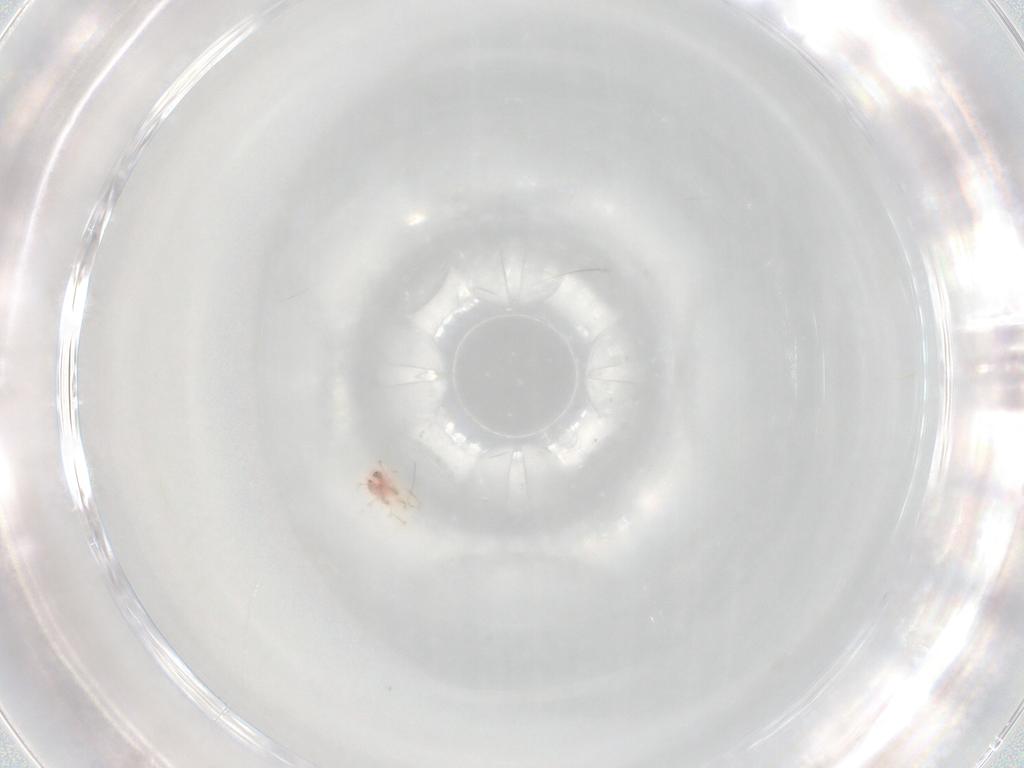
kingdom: Animalia
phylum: Arthropoda
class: Arachnida
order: Trombidiformes
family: Eupodidae
